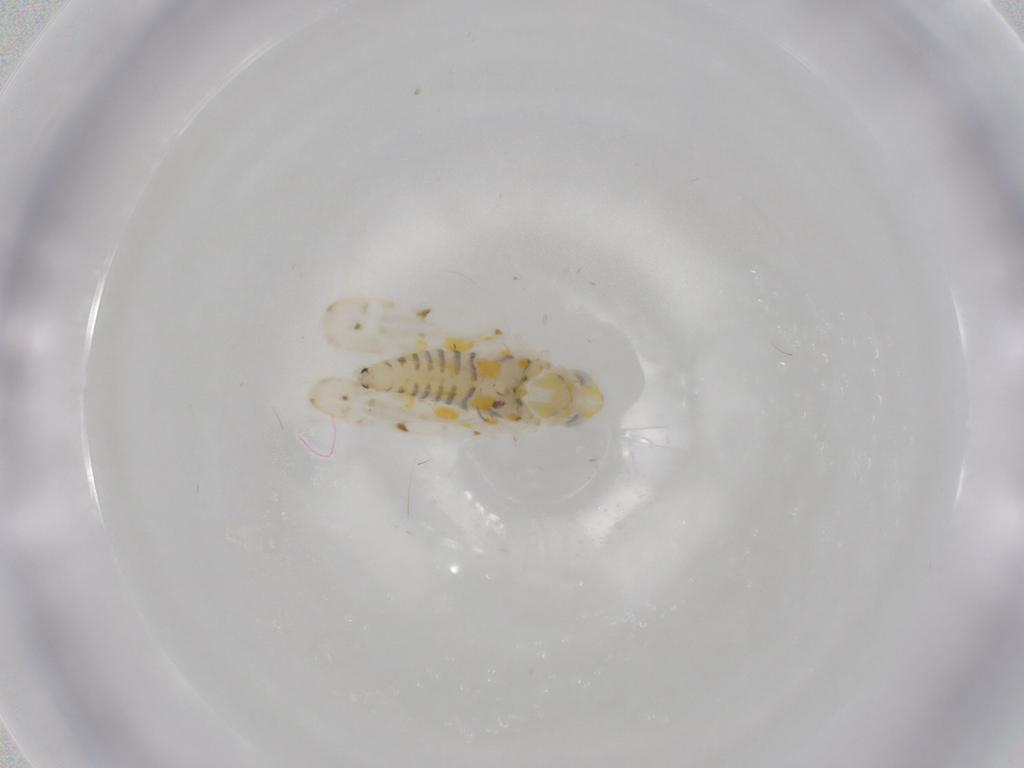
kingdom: Animalia
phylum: Arthropoda
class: Insecta
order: Hemiptera
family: Cicadellidae
